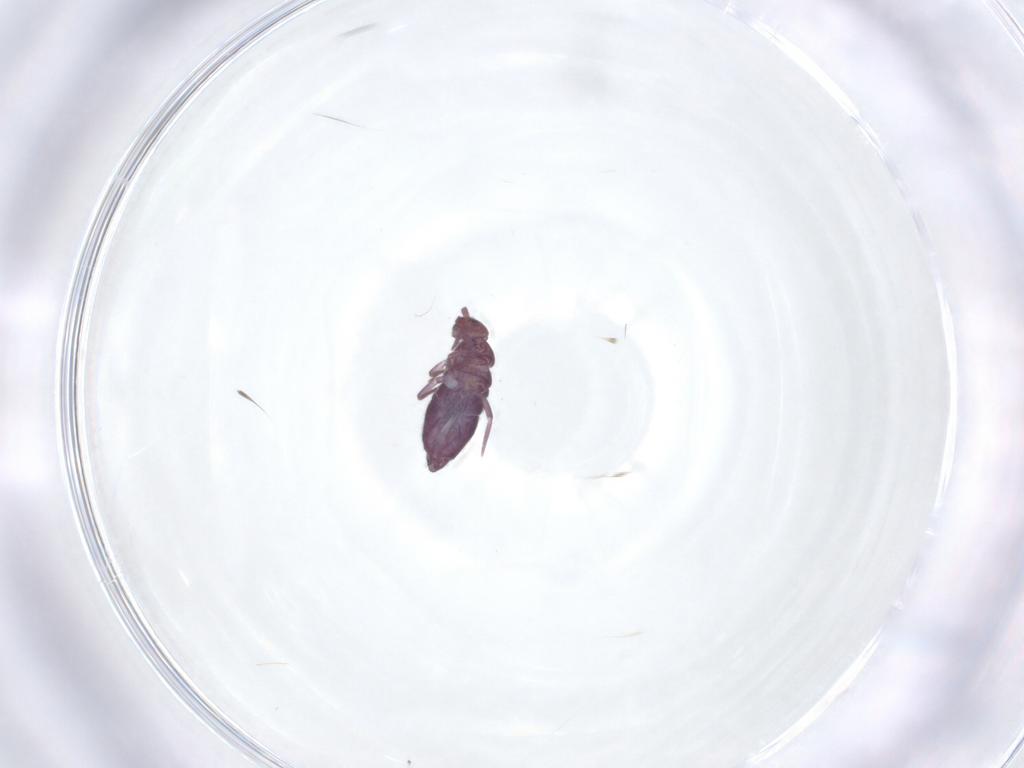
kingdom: Animalia
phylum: Arthropoda
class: Collembola
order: Entomobryomorpha
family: Entomobryidae
